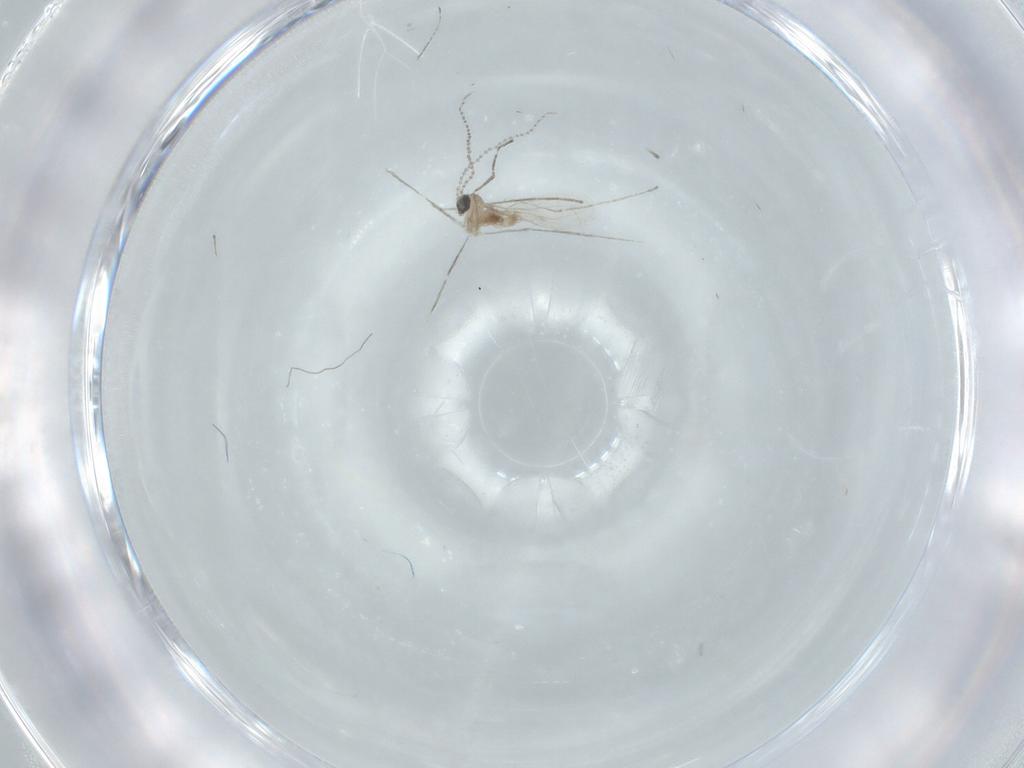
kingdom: Animalia
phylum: Arthropoda
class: Insecta
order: Diptera
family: Cecidomyiidae
